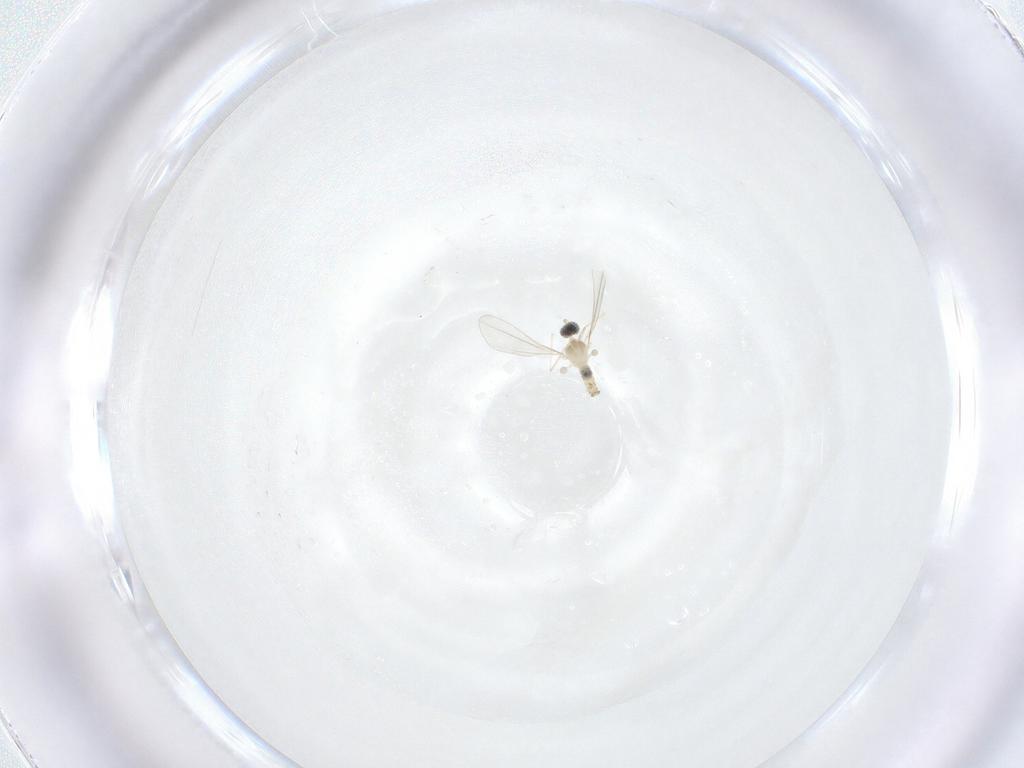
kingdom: Animalia
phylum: Arthropoda
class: Insecta
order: Diptera
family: Cecidomyiidae
